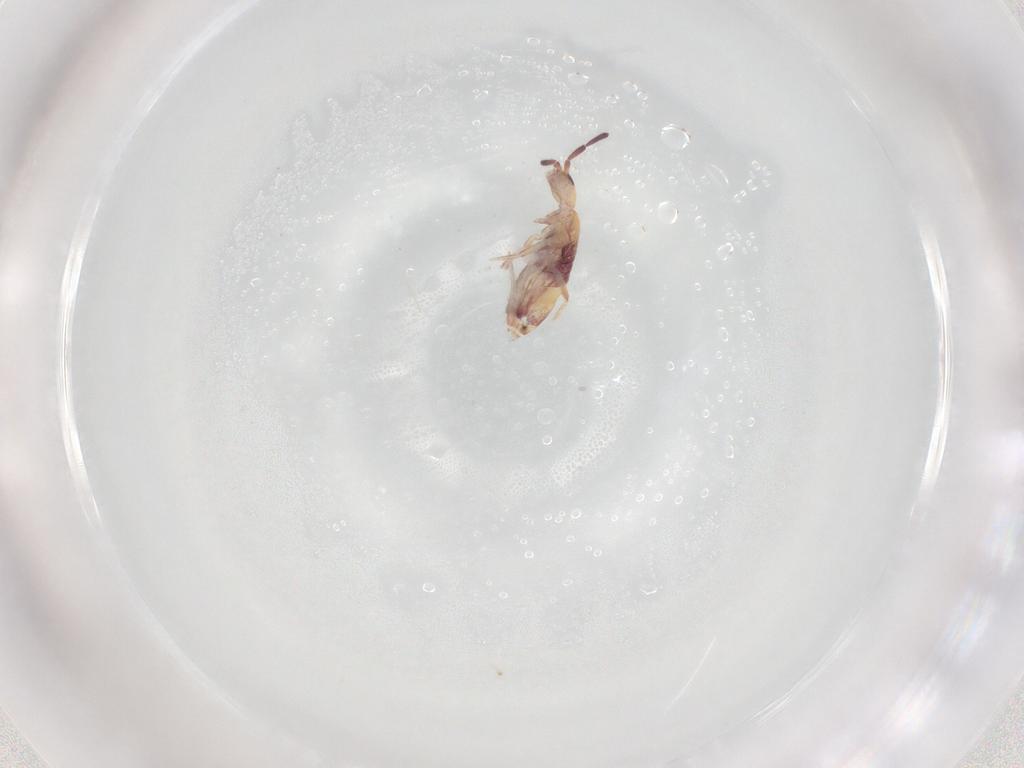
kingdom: Animalia
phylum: Arthropoda
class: Collembola
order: Entomobryomorpha
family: Entomobryidae
